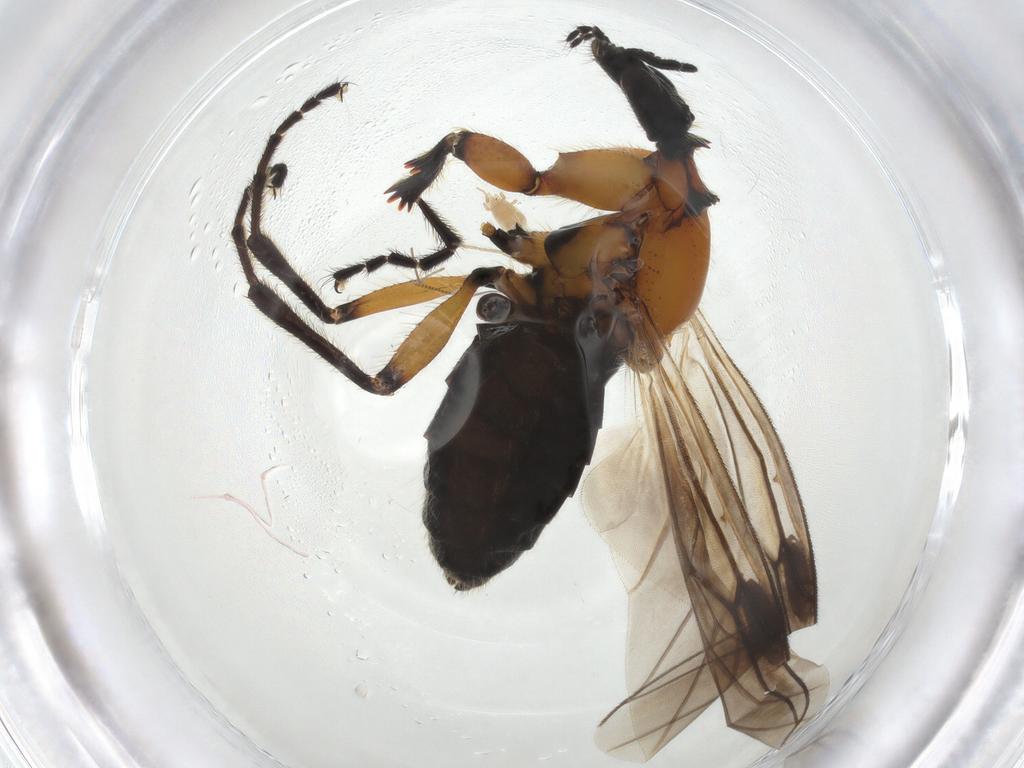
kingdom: Animalia
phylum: Arthropoda
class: Insecta
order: Diptera
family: Bibionidae
